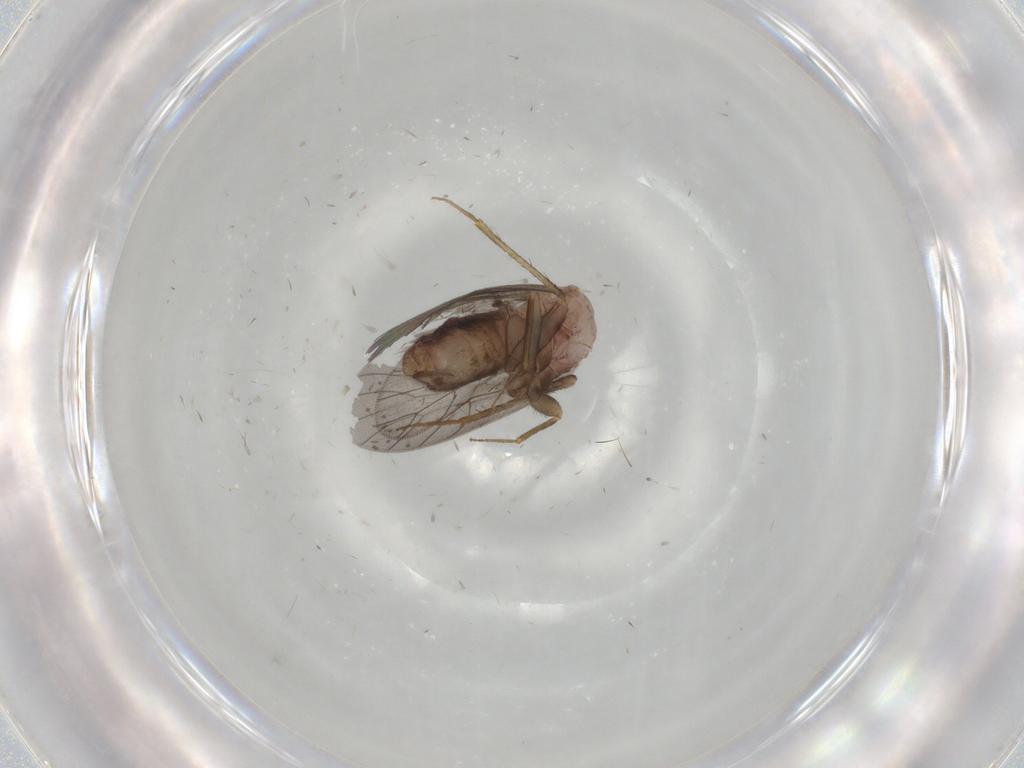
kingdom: Animalia
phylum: Arthropoda
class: Insecta
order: Psocodea
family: Lepidopsocidae
